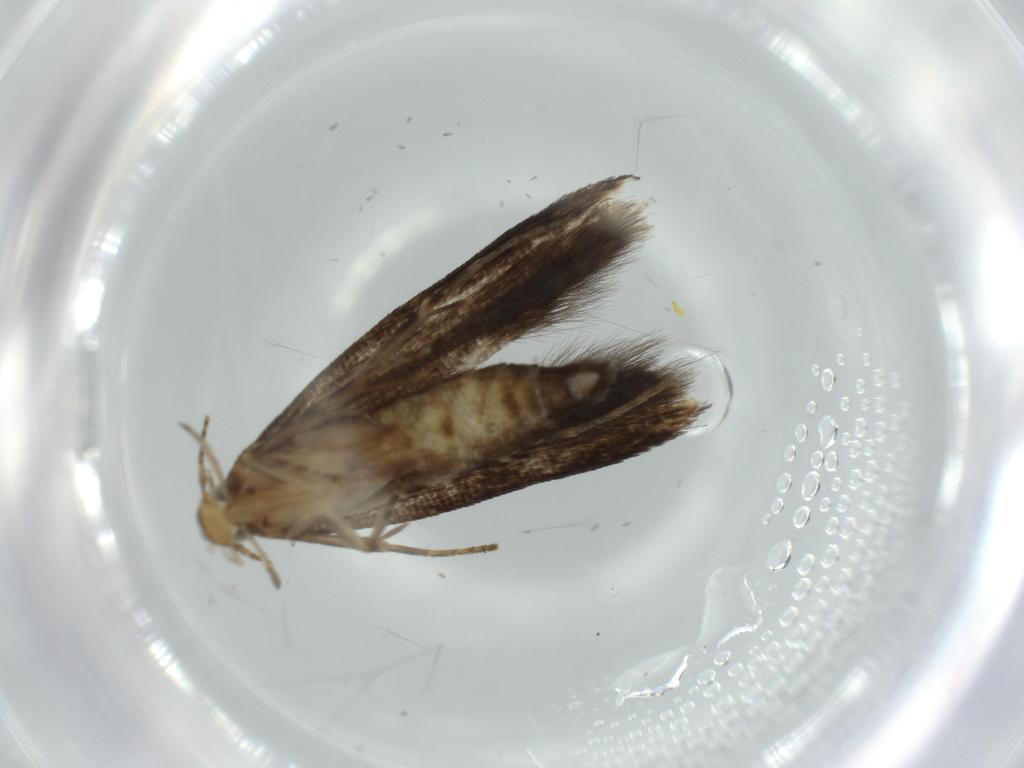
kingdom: Animalia
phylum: Arthropoda
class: Insecta
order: Lepidoptera
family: Gelechiidae
